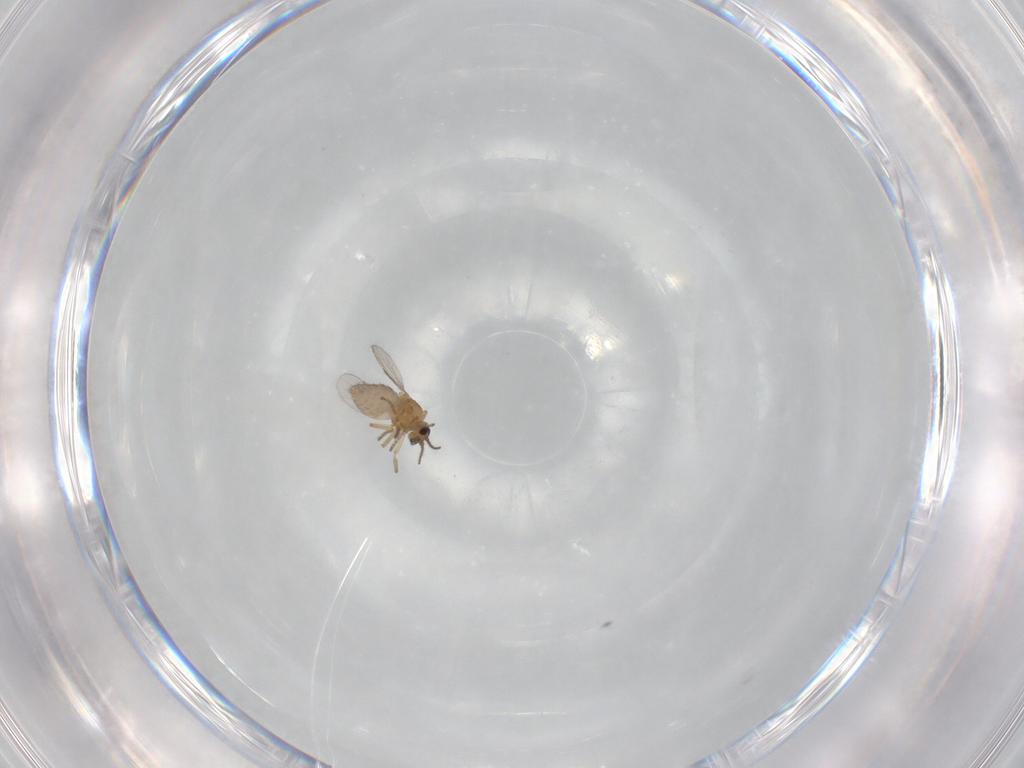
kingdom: Animalia
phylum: Arthropoda
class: Insecta
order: Diptera
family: Ceratopogonidae
